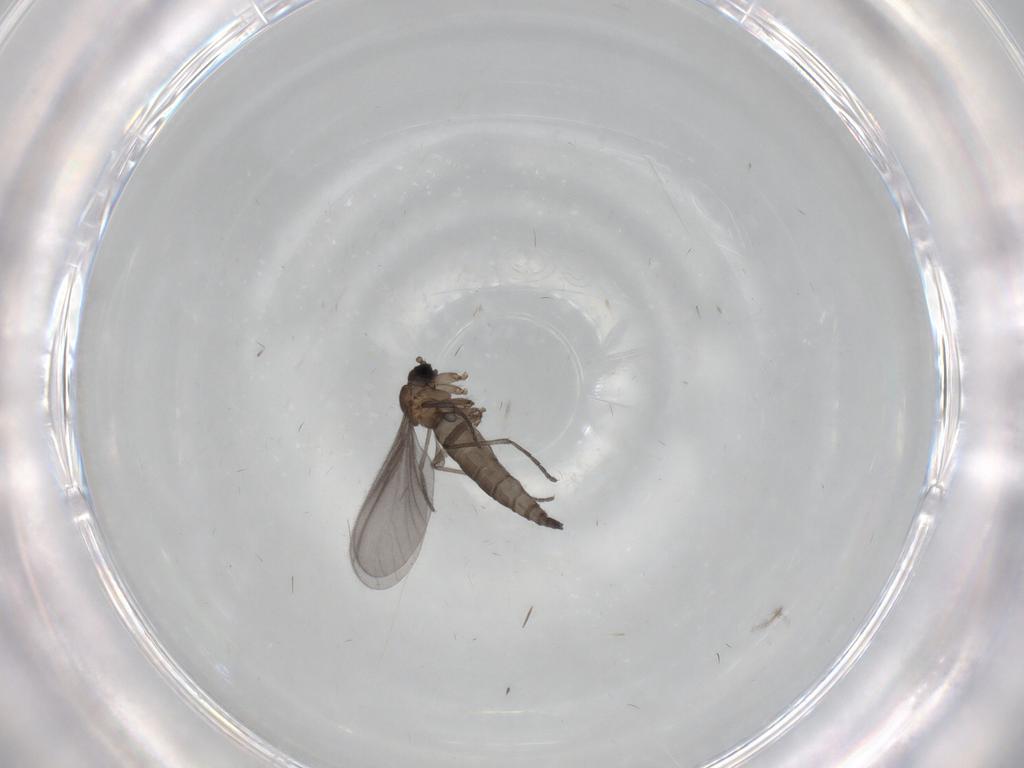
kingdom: Animalia
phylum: Arthropoda
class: Insecta
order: Diptera
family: Sciaridae
